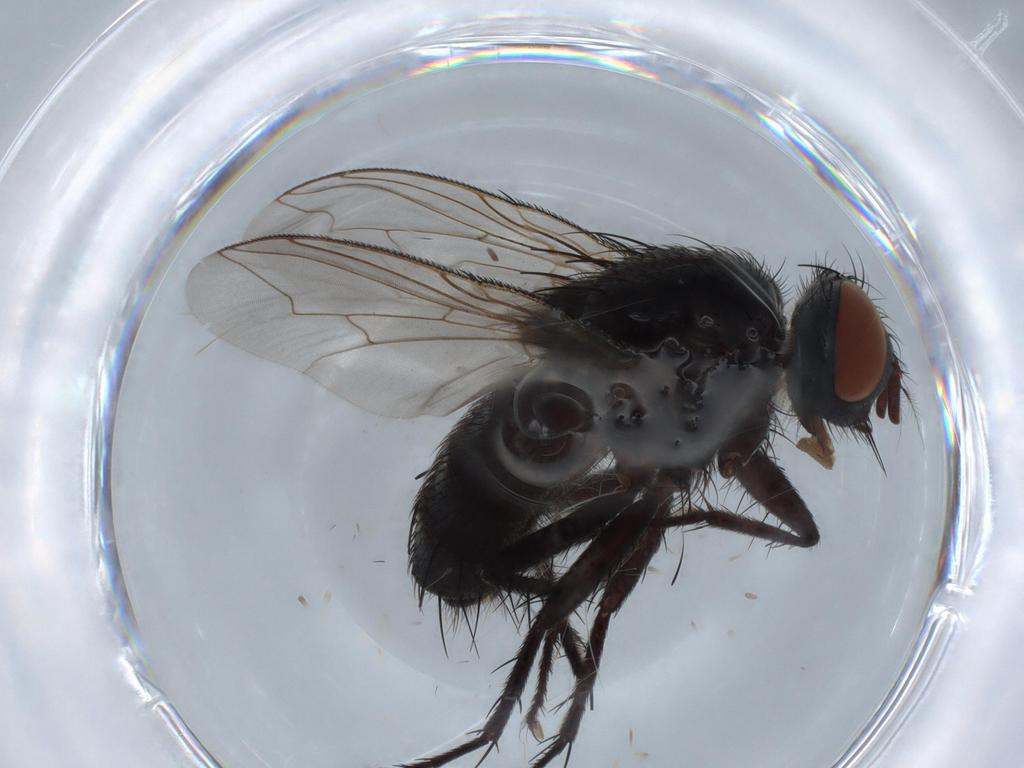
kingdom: Animalia
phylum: Arthropoda
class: Insecta
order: Diptera
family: Sarcophagidae
